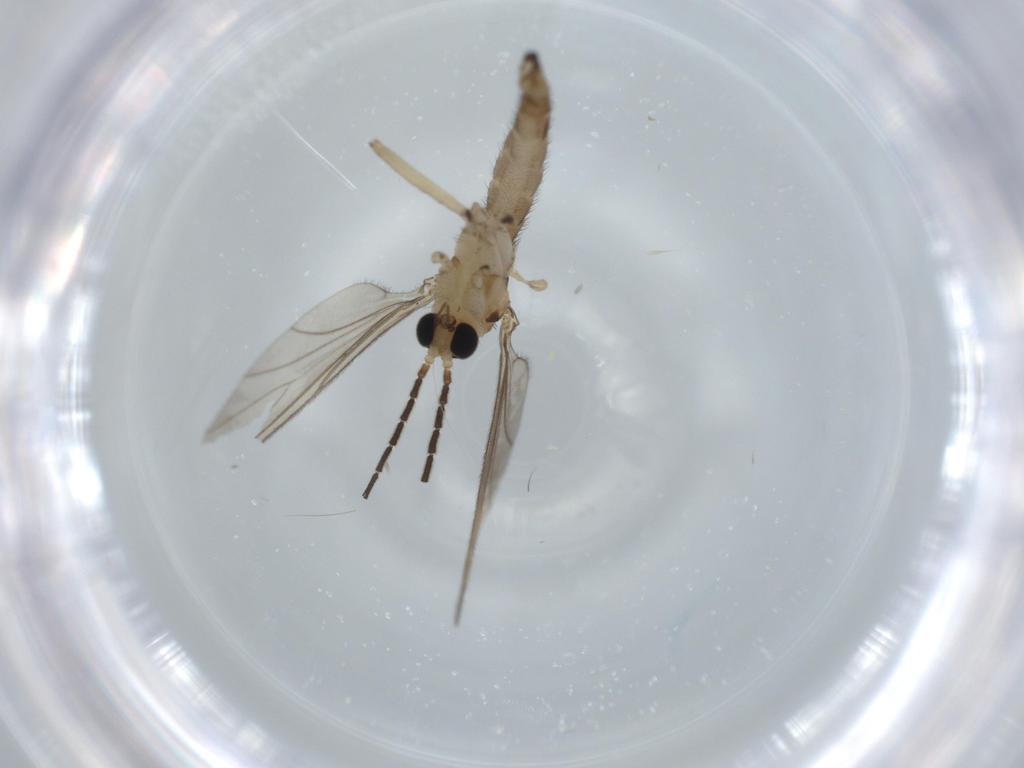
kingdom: Animalia
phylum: Arthropoda
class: Insecta
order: Diptera
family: Sciaridae
